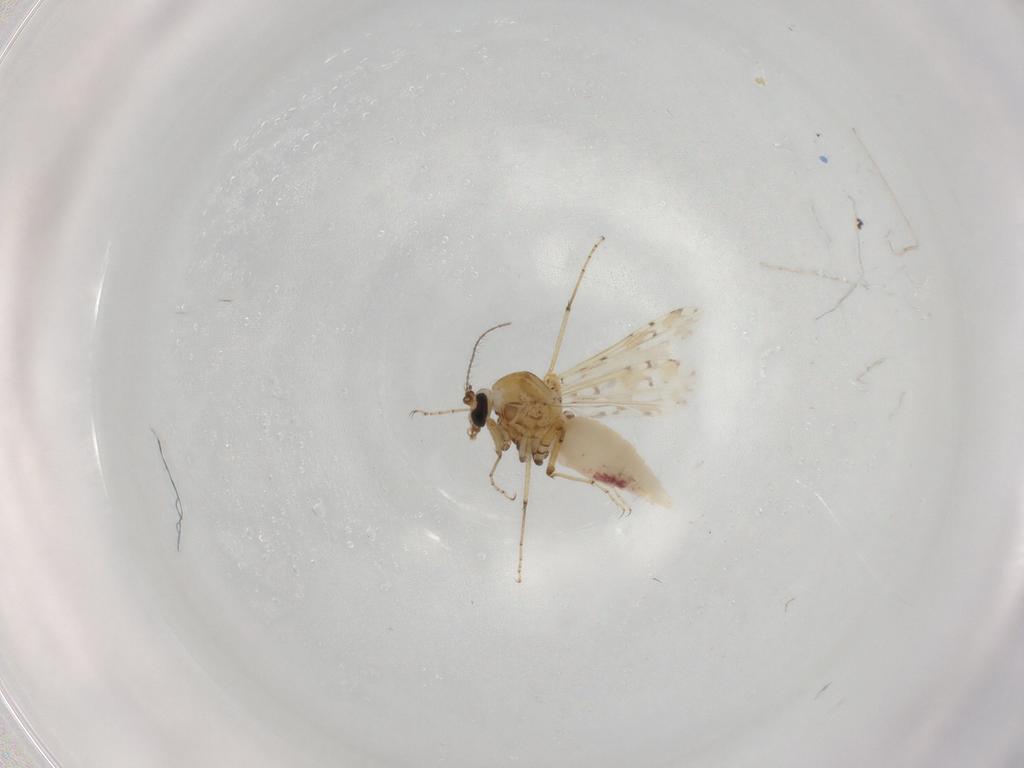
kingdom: Animalia
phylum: Arthropoda
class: Insecta
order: Diptera
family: Ceratopogonidae
